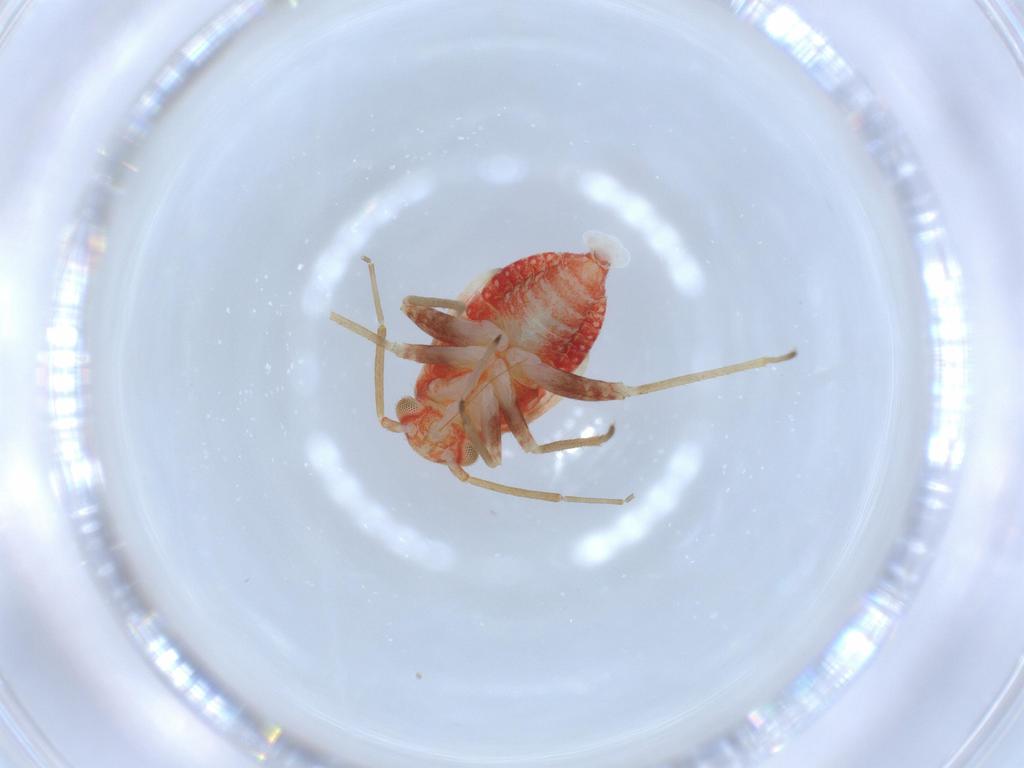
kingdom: Animalia
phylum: Arthropoda
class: Insecta
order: Hemiptera
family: Miridae
